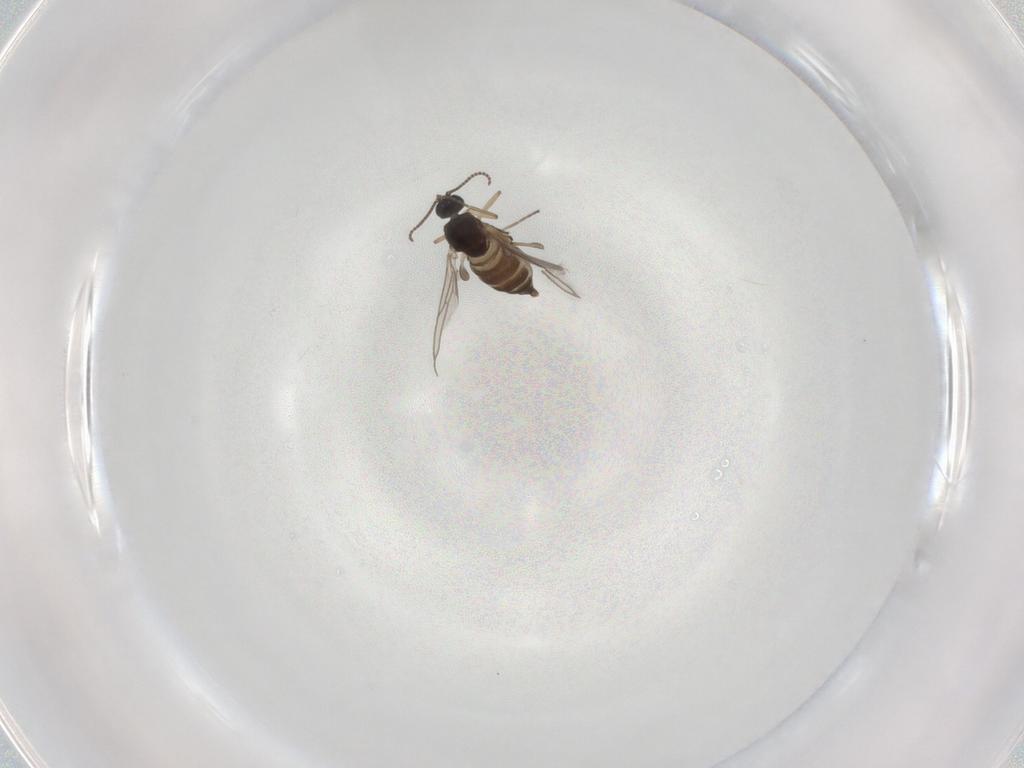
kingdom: Animalia
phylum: Arthropoda
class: Insecta
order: Diptera
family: Sciaridae
